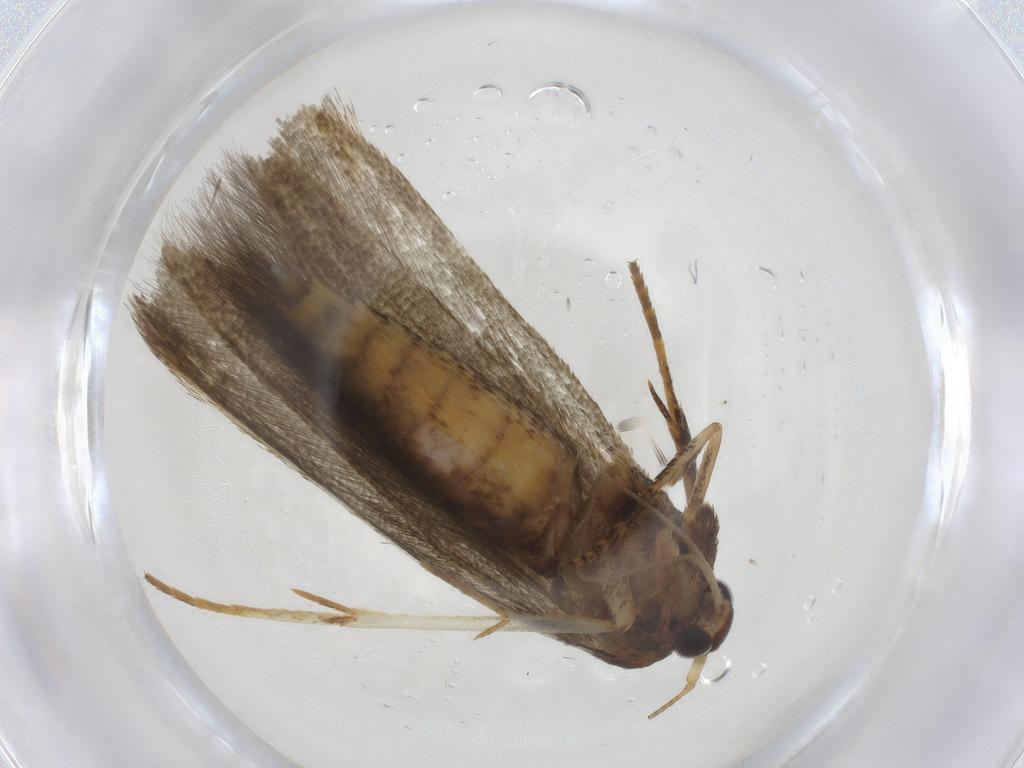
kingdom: Animalia
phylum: Arthropoda
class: Insecta
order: Lepidoptera
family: Blastobasidae
